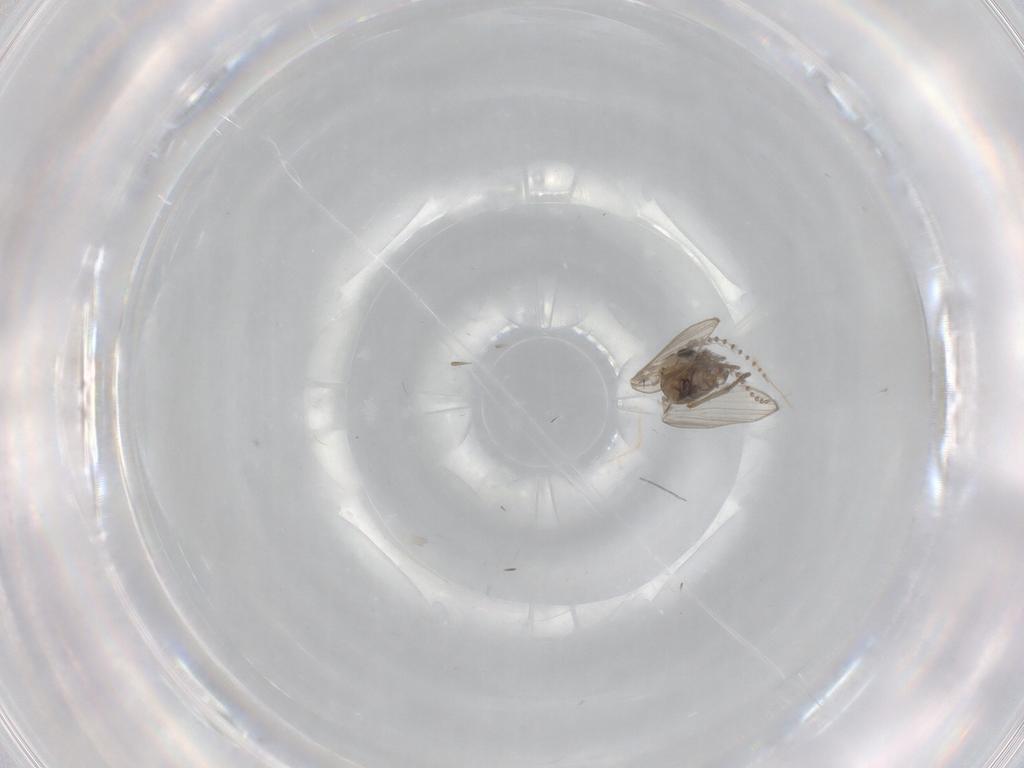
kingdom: Animalia
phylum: Arthropoda
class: Insecta
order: Diptera
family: Psychodidae
